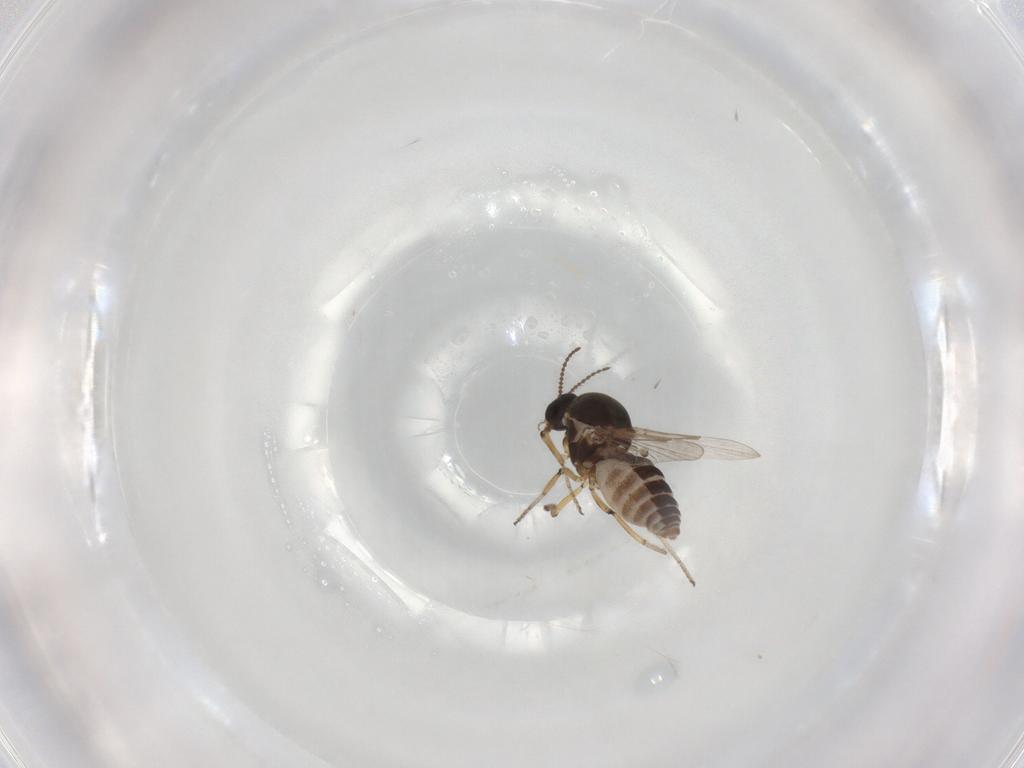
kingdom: Animalia
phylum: Arthropoda
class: Insecta
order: Diptera
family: Ceratopogonidae
